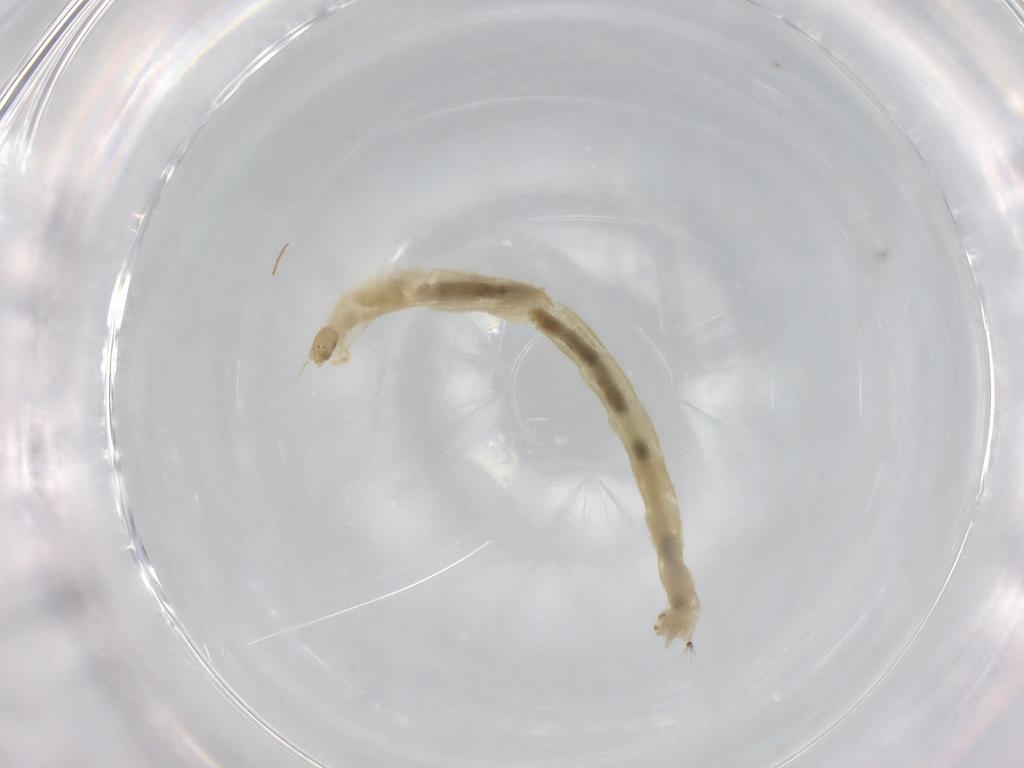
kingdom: Animalia
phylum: Arthropoda
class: Insecta
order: Diptera
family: Chironomidae
